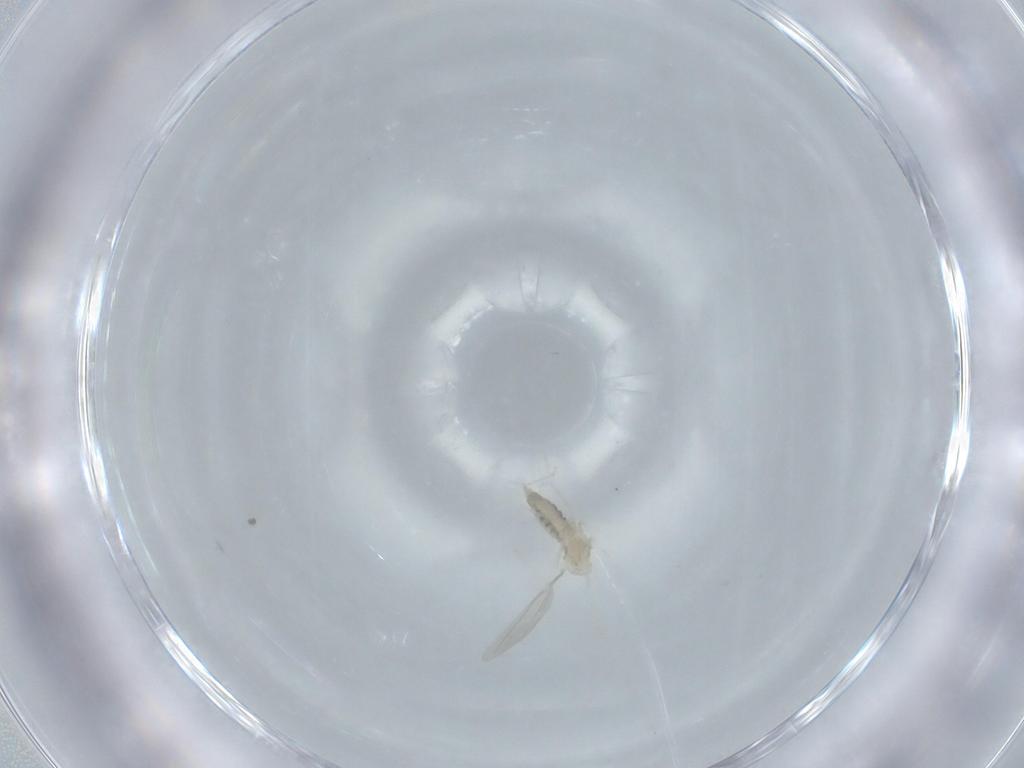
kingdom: Animalia
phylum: Arthropoda
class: Insecta
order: Diptera
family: Cecidomyiidae
